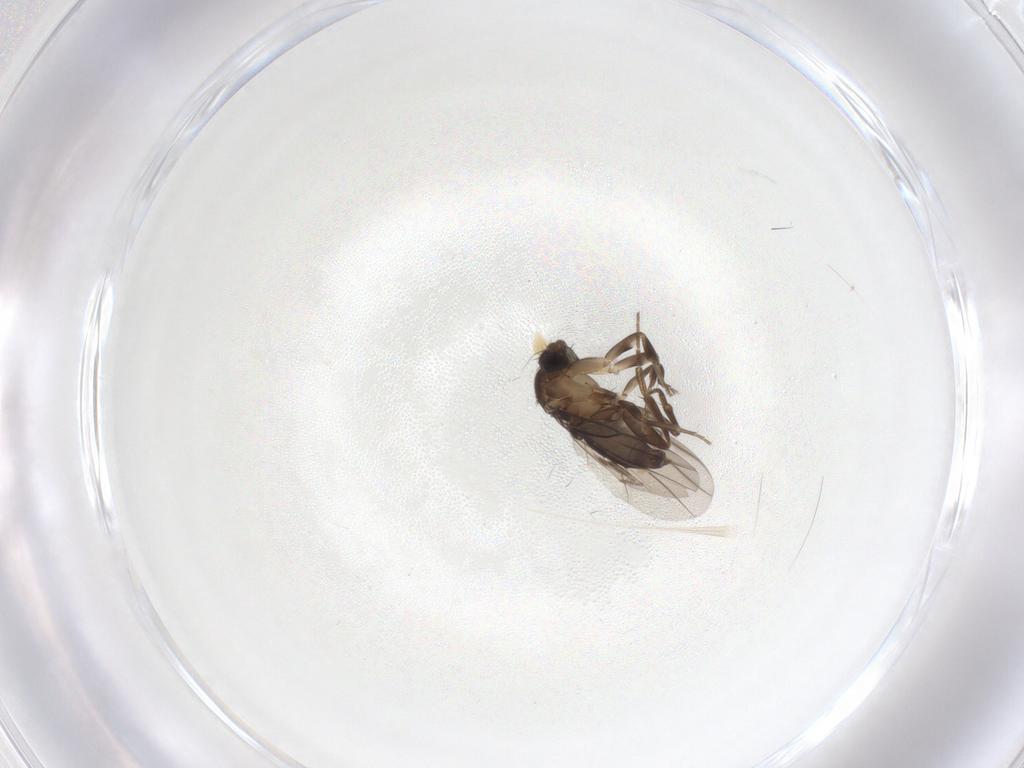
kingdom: Animalia
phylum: Arthropoda
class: Insecta
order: Diptera
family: Phoridae
